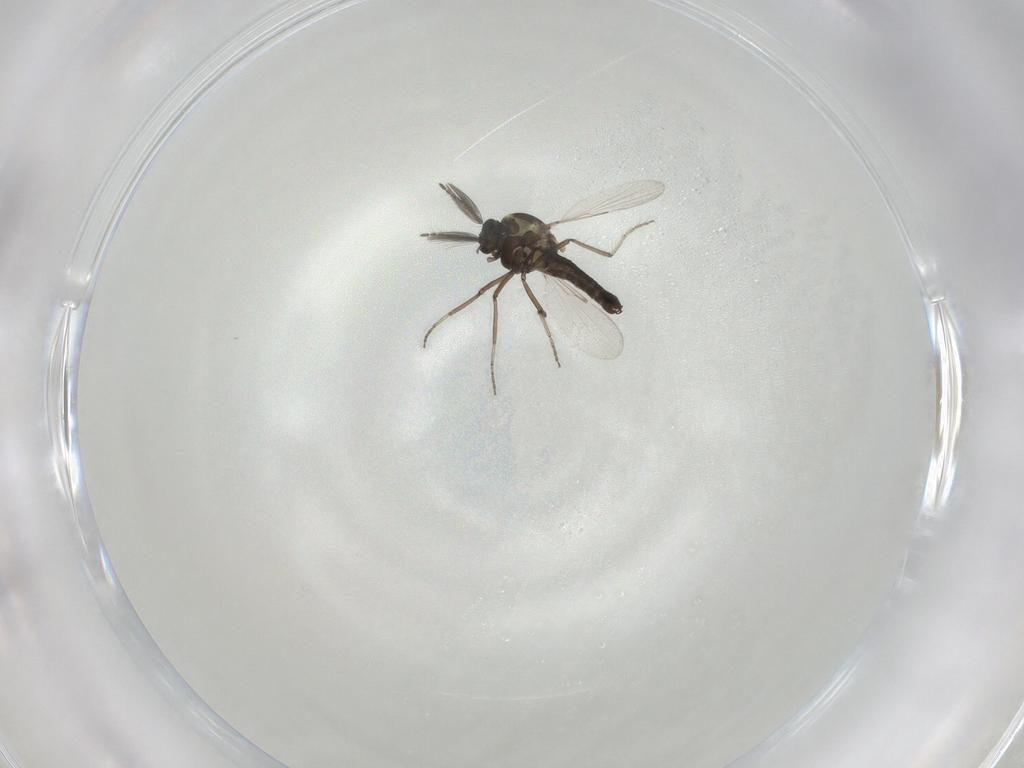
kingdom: Animalia
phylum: Arthropoda
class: Insecta
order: Diptera
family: Ceratopogonidae
